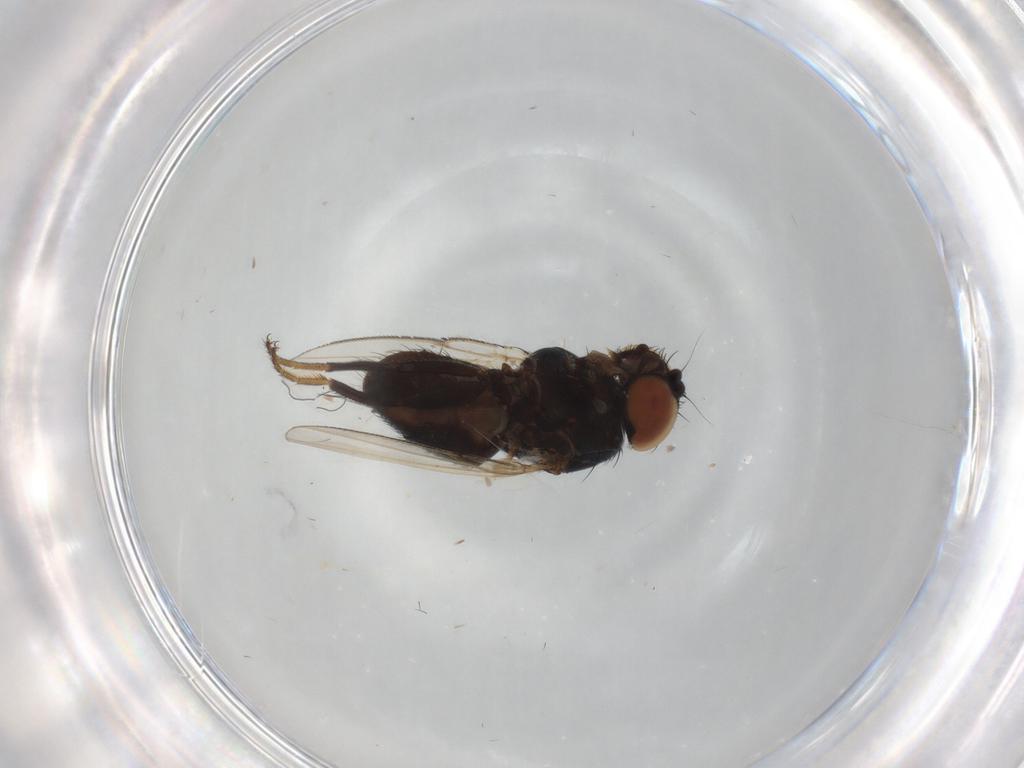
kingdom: Animalia
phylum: Arthropoda
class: Insecta
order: Diptera
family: Milichiidae
